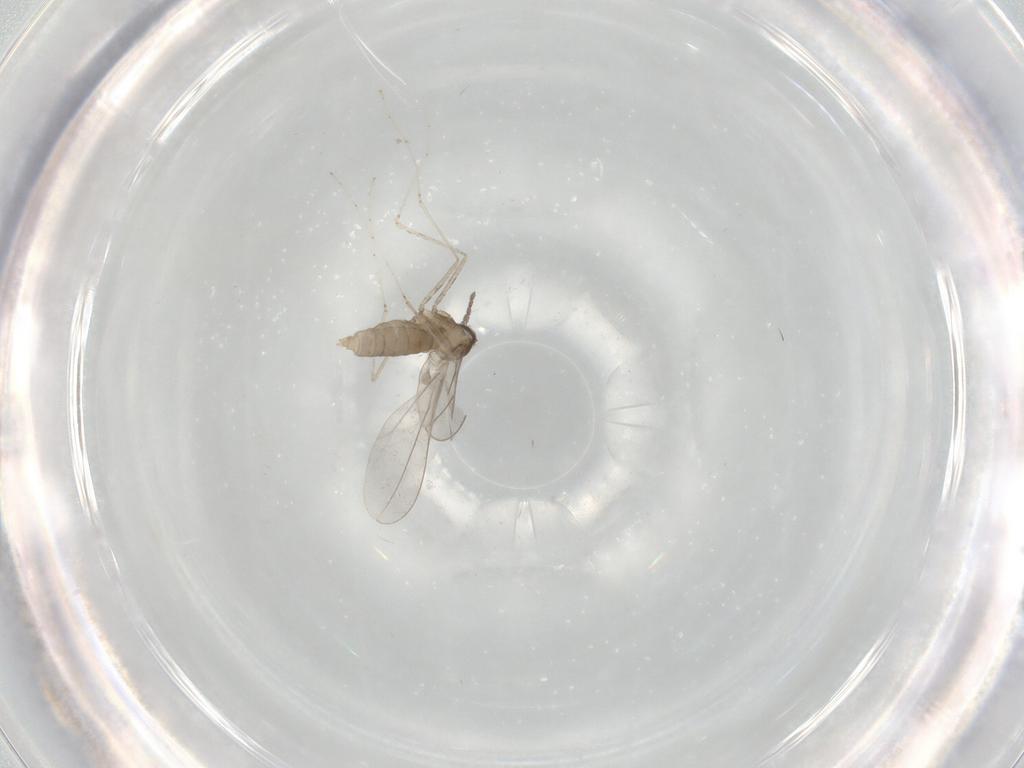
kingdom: Animalia
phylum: Arthropoda
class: Insecta
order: Diptera
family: Cecidomyiidae
